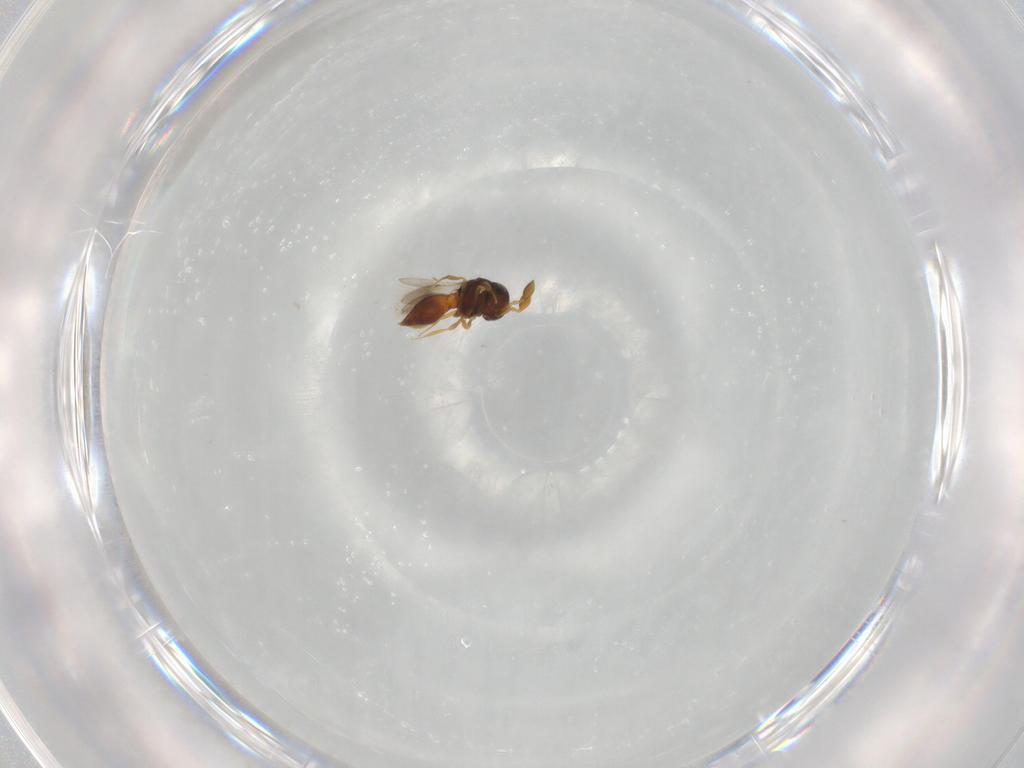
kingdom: Animalia
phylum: Arthropoda
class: Insecta
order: Hymenoptera
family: Scelionidae
